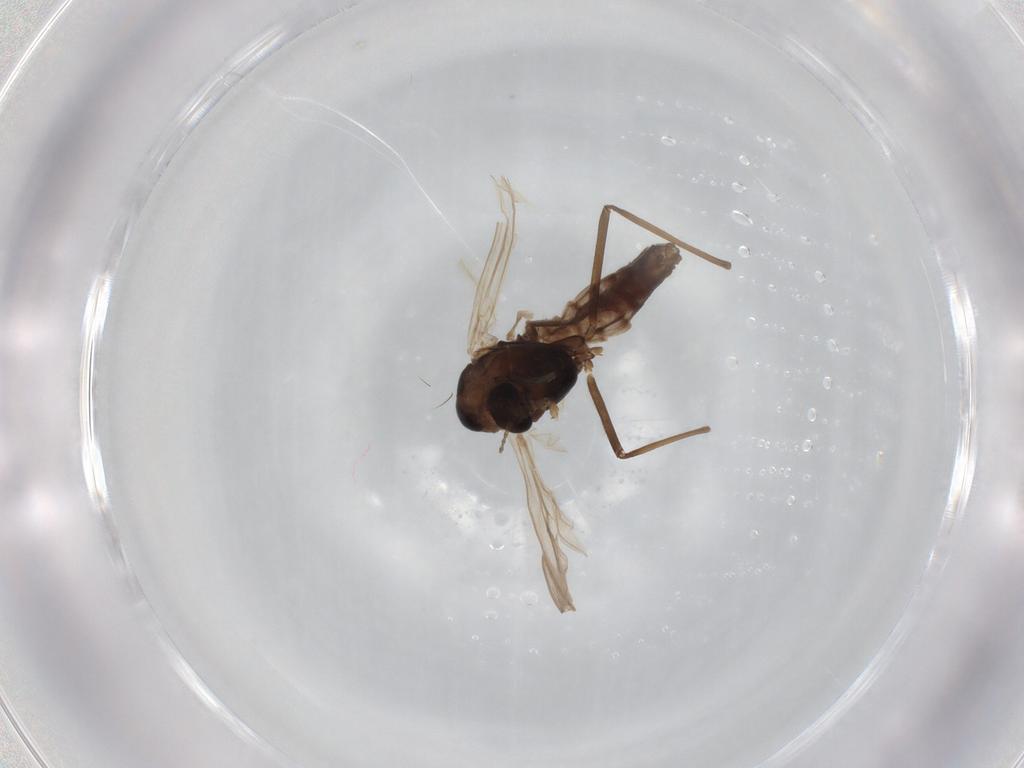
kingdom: Animalia
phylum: Arthropoda
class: Insecta
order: Diptera
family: Chironomidae
